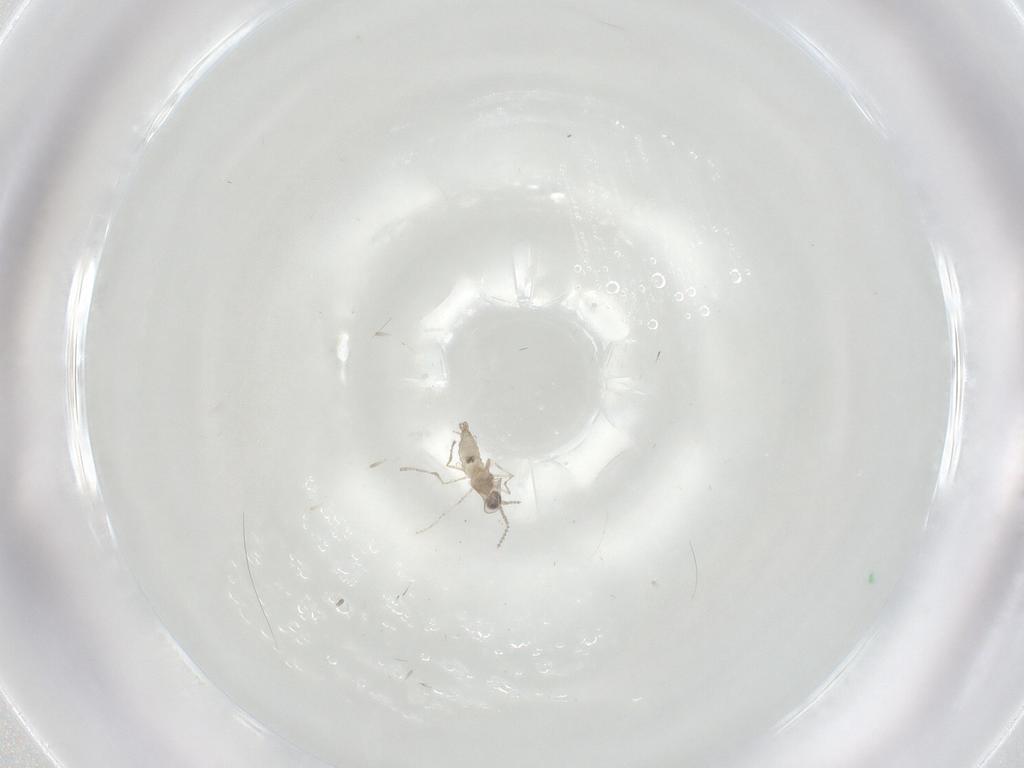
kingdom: Animalia
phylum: Arthropoda
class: Insecta
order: Diptera
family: Cecidomyiidae
